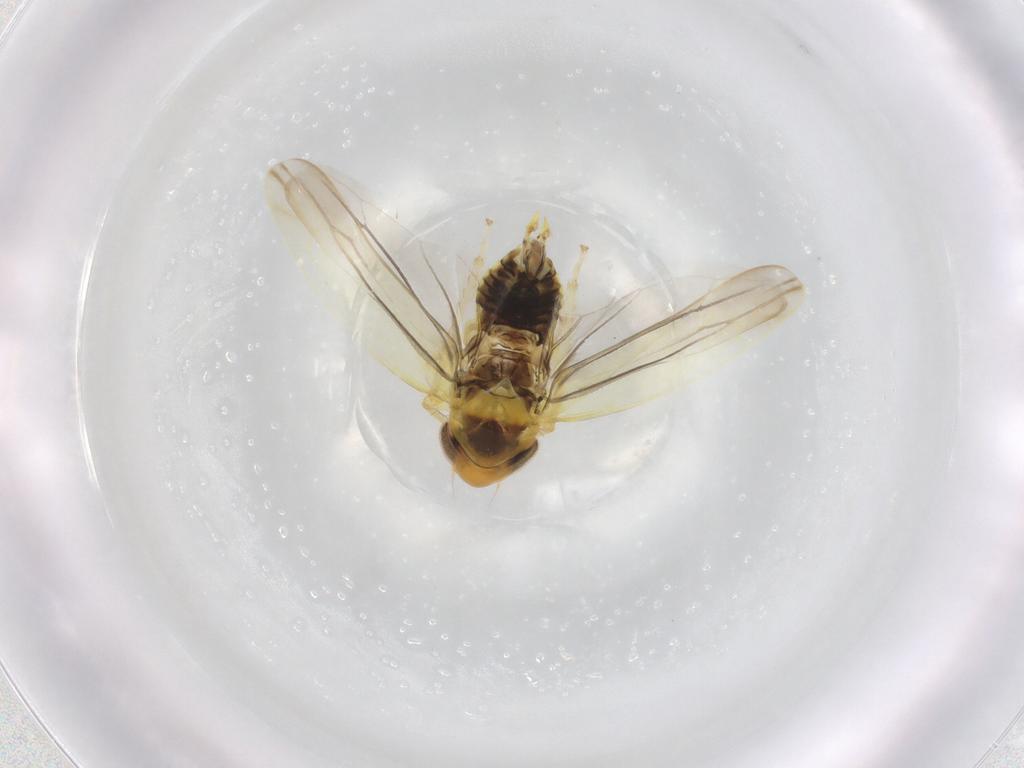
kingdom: Animalia
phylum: Arthropoda
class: Insecta
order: Hemiptera
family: Cicadellidae
